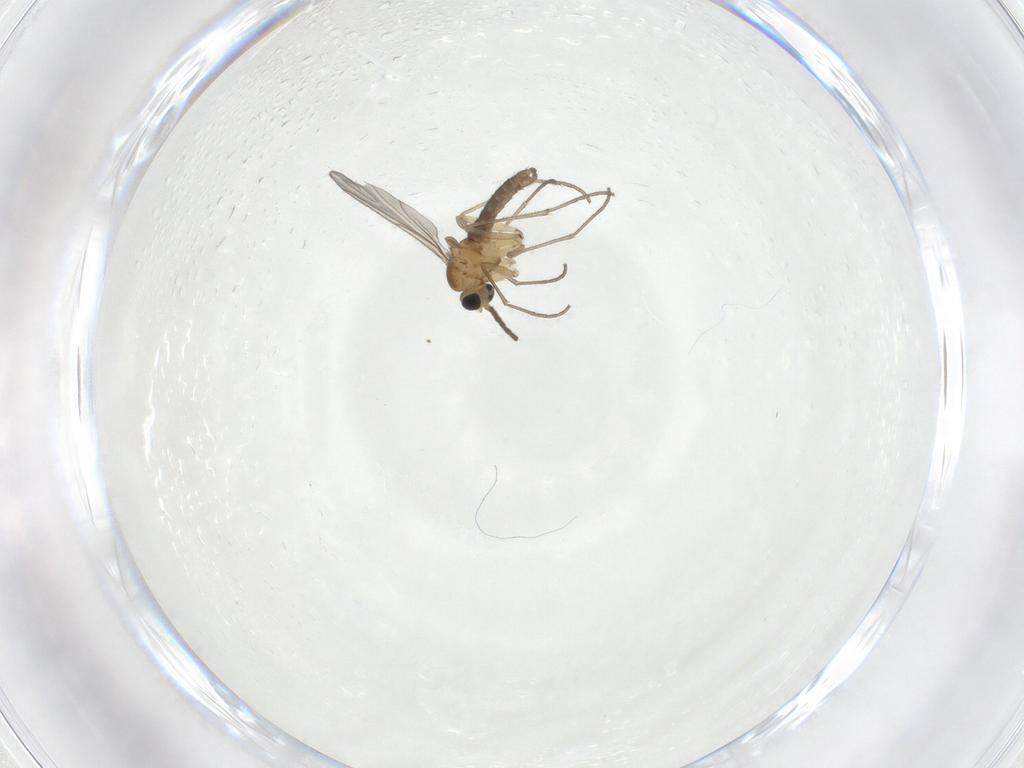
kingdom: Animalia
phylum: Arthropoda
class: Insecta
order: Diptera
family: Sciaridae
